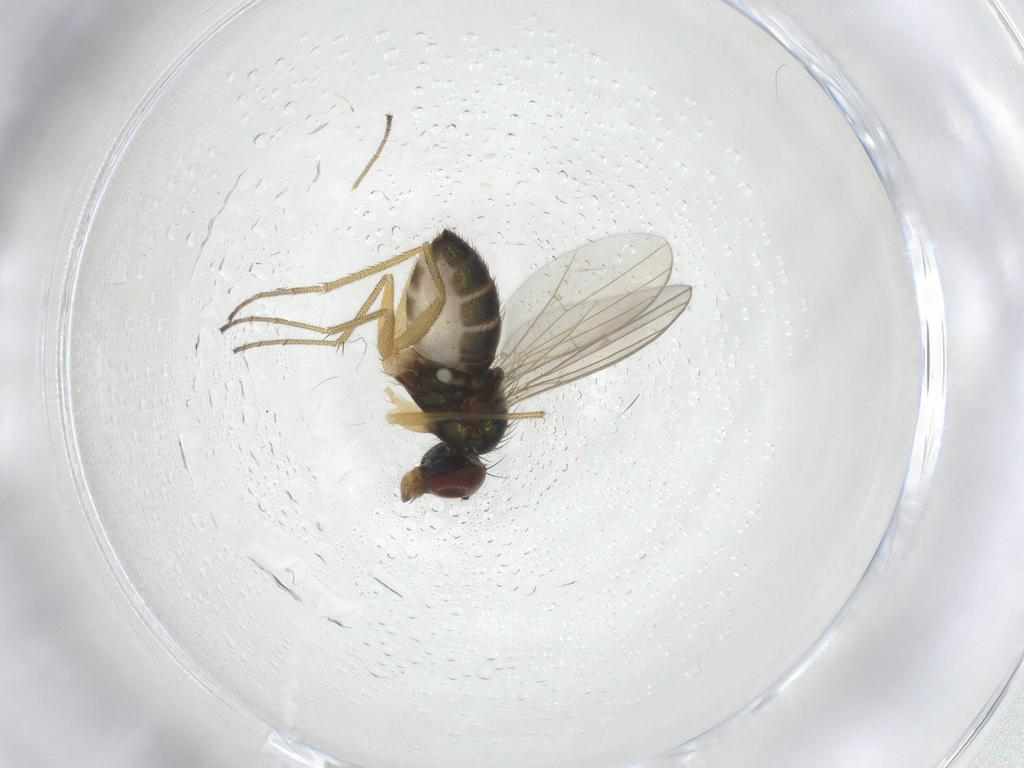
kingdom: Animalia
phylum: Arthropoda
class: Insecta
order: Diptera
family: Dolichopodidae
